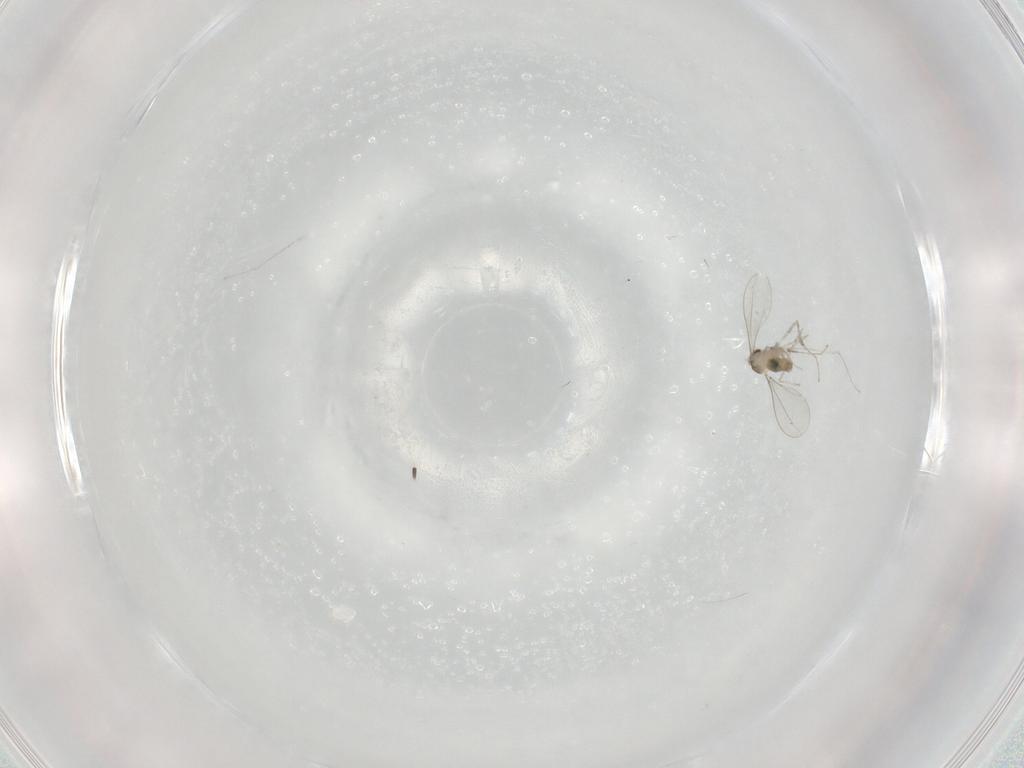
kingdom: Animalia
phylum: Arthropoda
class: Insecta
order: Diptera
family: Cecidomyiidae
